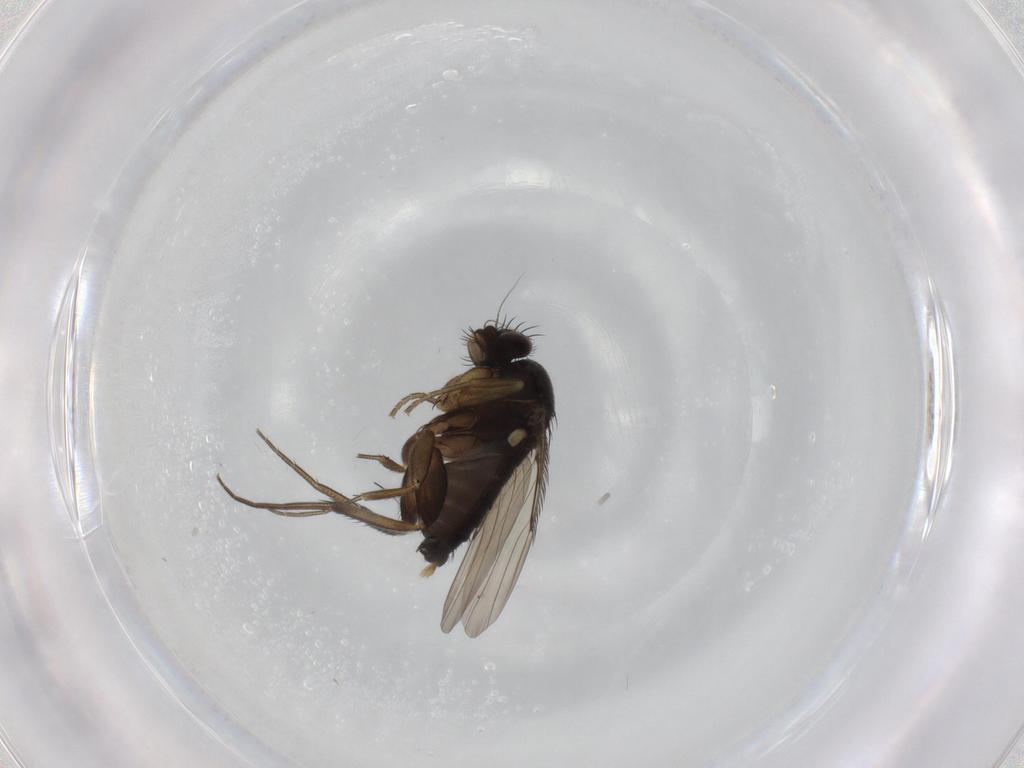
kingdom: Animalia
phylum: Arthropoda
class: Insecta
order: Diptera
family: Phoridae
